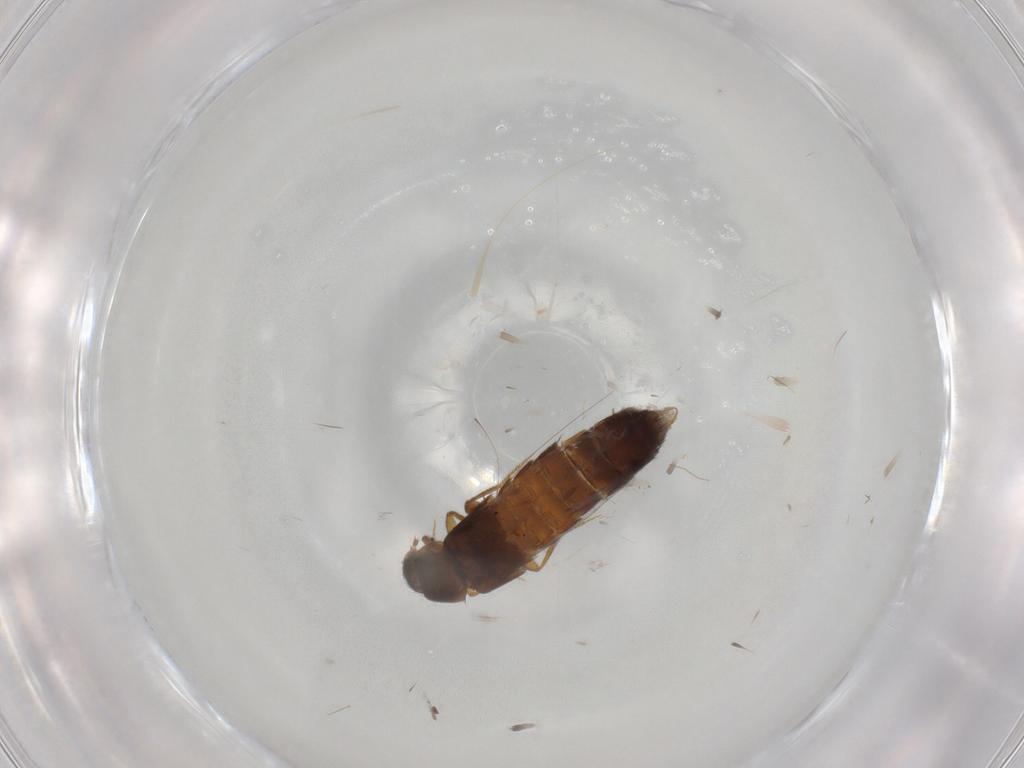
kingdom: Animalia
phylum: Arthropoda
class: Insecta
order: Coleoptera
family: Staphylinidae
